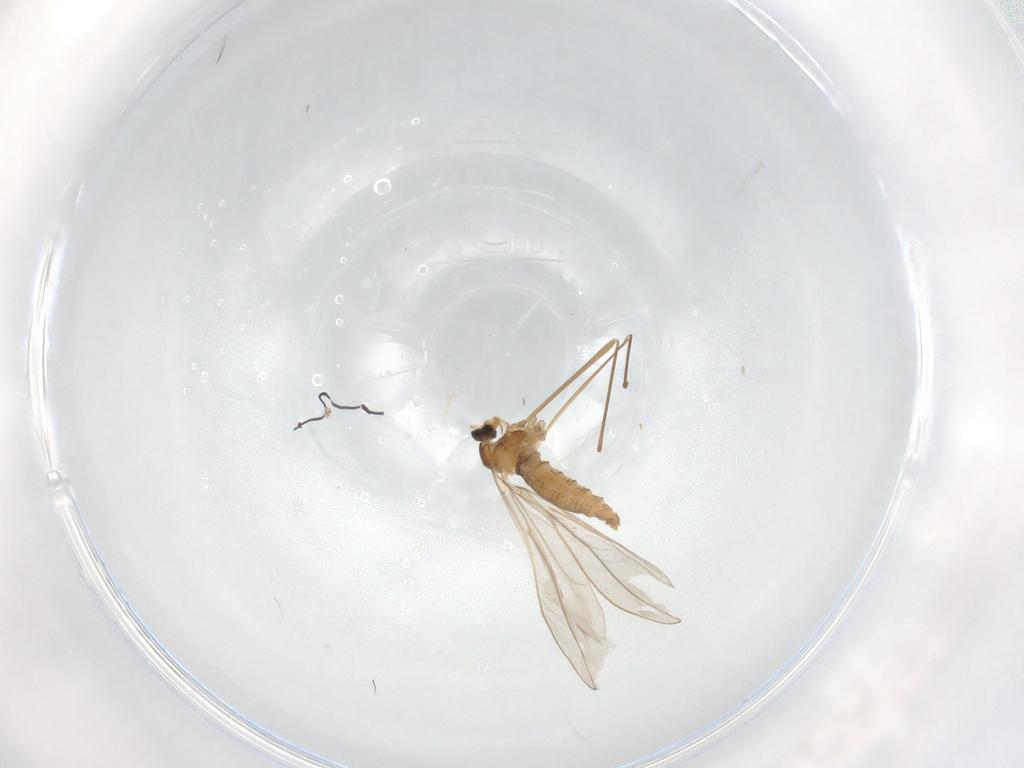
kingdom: Animalia
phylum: Arthropoda
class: Insecta
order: Diptera
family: Cecidomyiidae
